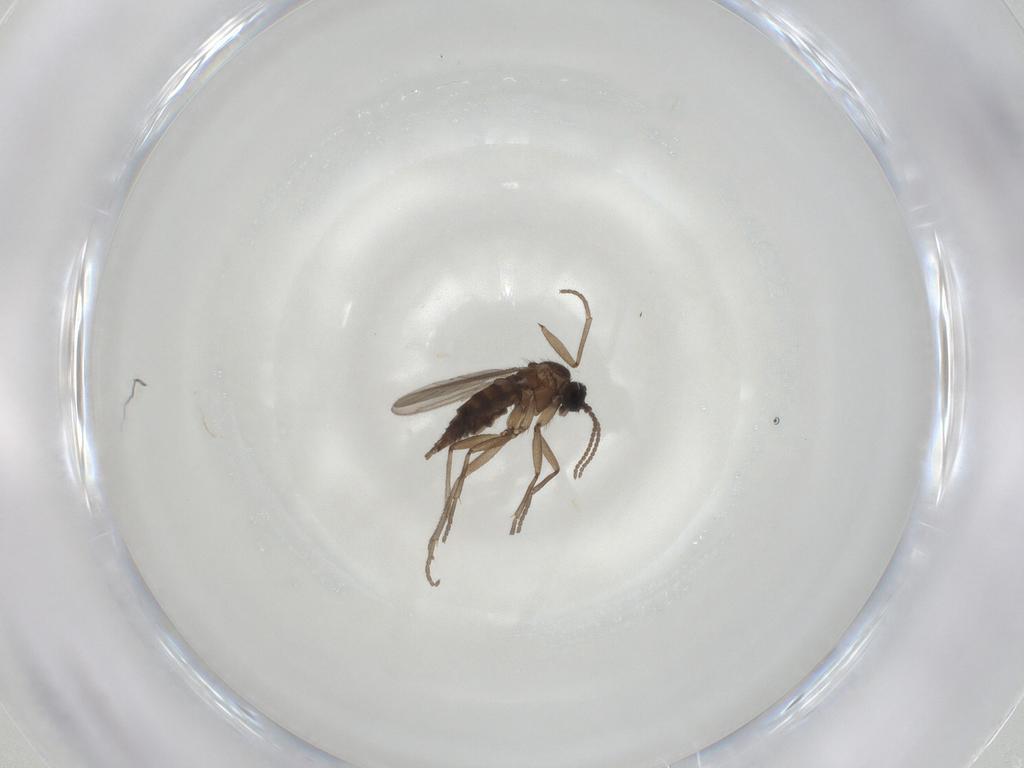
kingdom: Animalia
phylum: Arthropoda
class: Insecta
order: Diptera
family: Sciaridae
